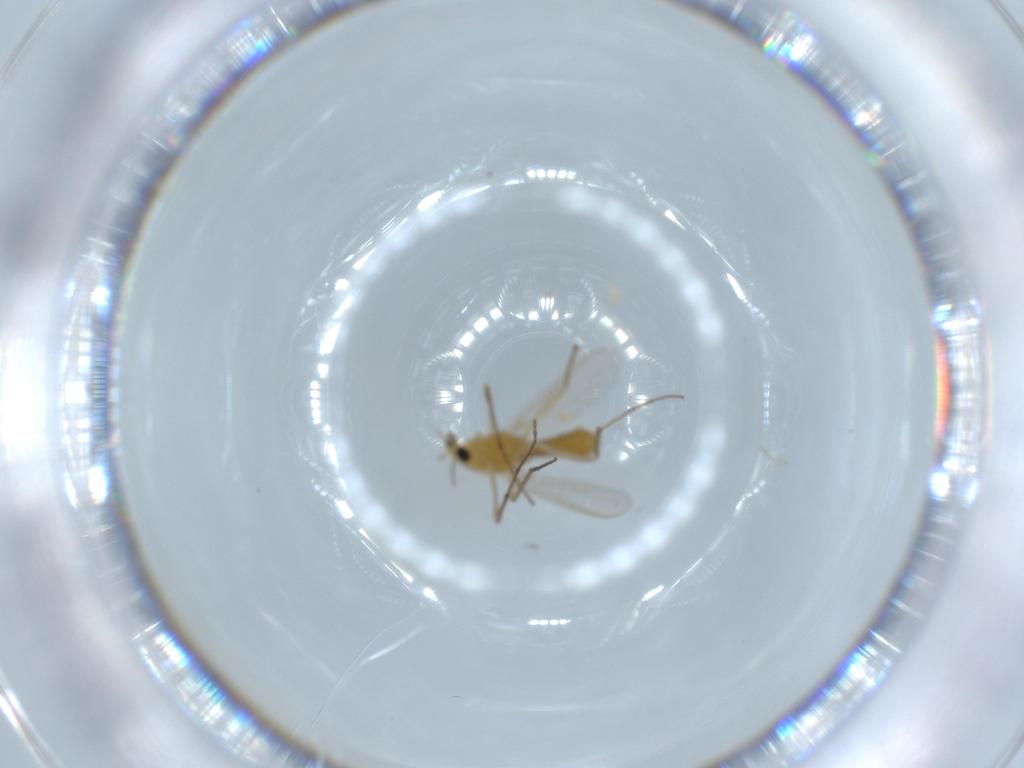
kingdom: Animalia
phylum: Arthropoda
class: Insecta
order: Diptera
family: Chironomidae
